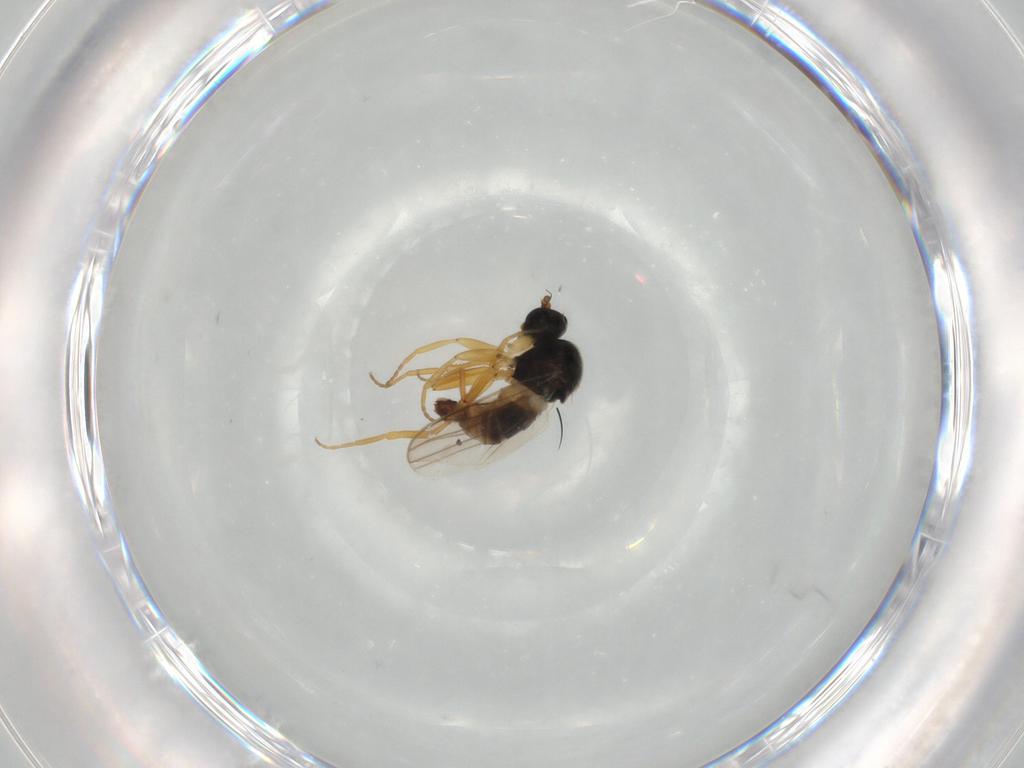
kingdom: Animalia
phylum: Arthropoda
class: Insecta
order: Diptera
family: Hybotidae
